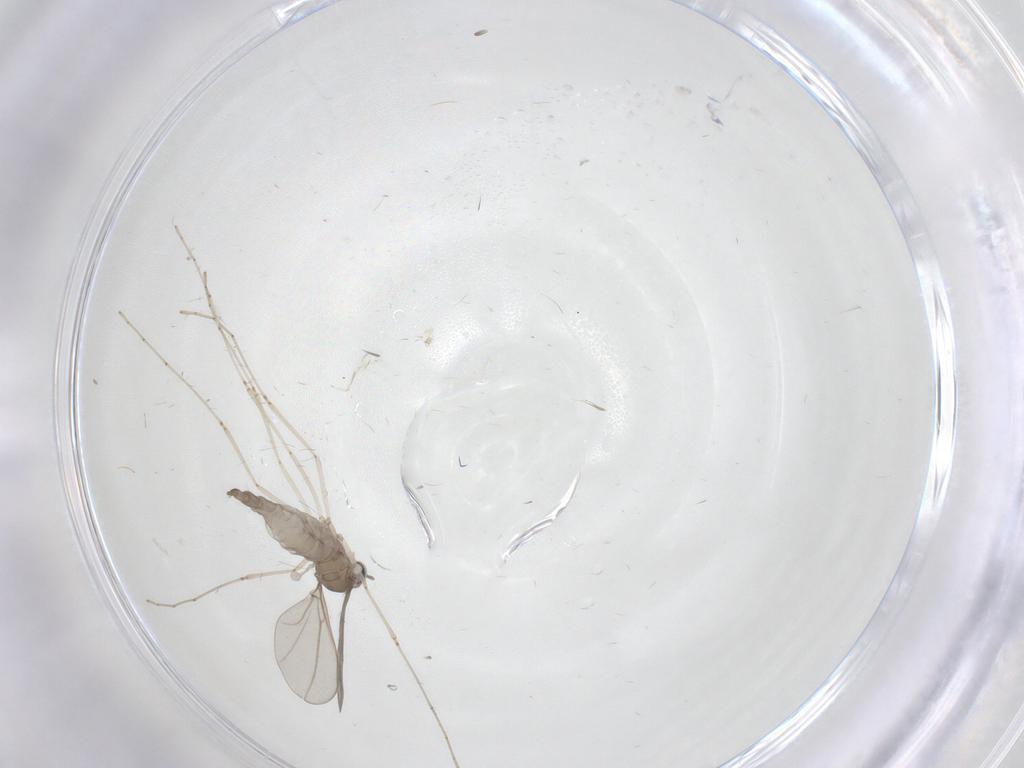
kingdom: Animalia
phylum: Arthropoda
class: Insecta
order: Diptera
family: Cecidomyiidae
